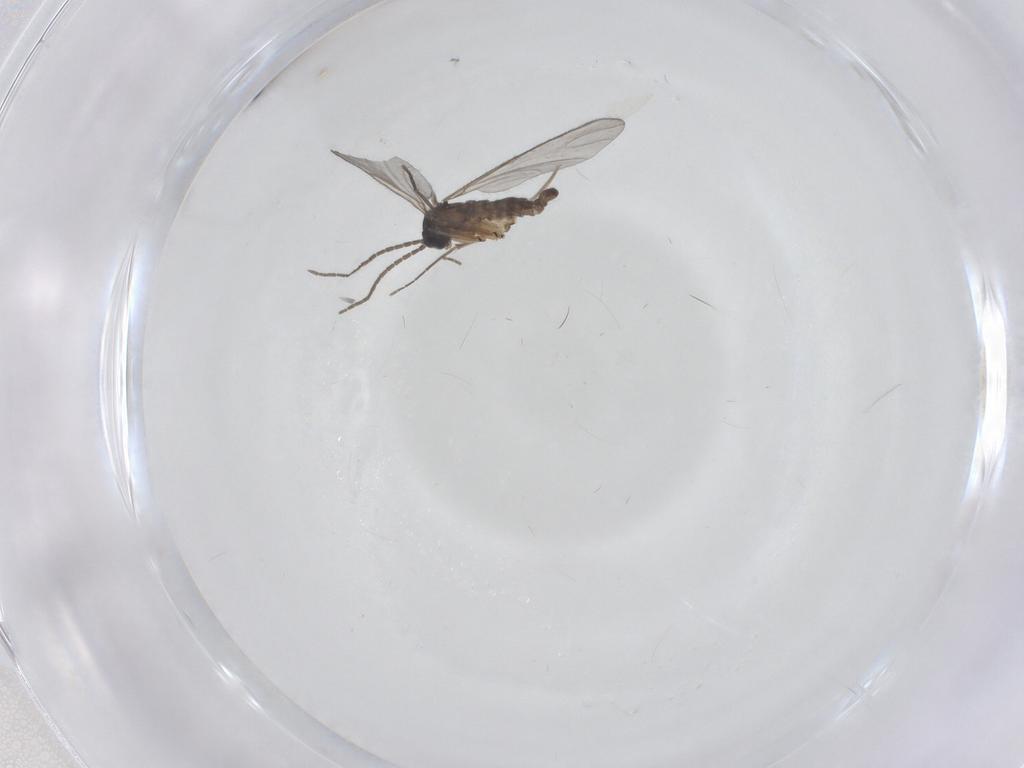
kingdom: Animalia
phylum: Arthropoda
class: Insecta
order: Diptera
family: Sciaridae
